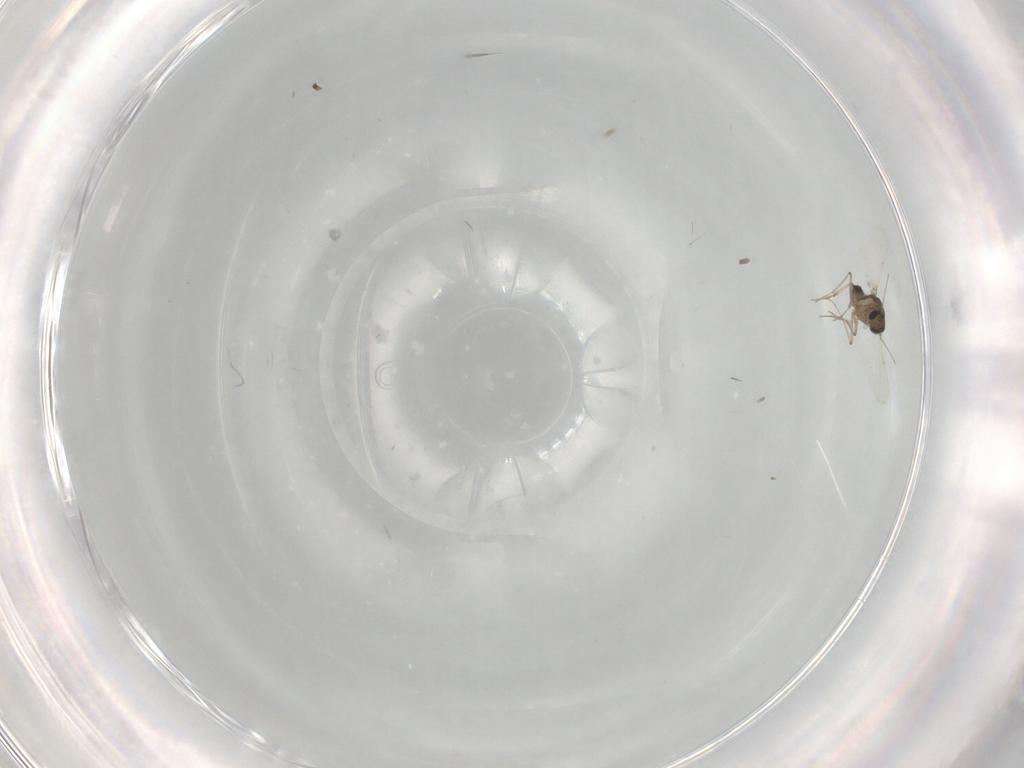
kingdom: Animalia
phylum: Arthropoda
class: Insecta
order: Diptera
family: Ceratopogonidae
